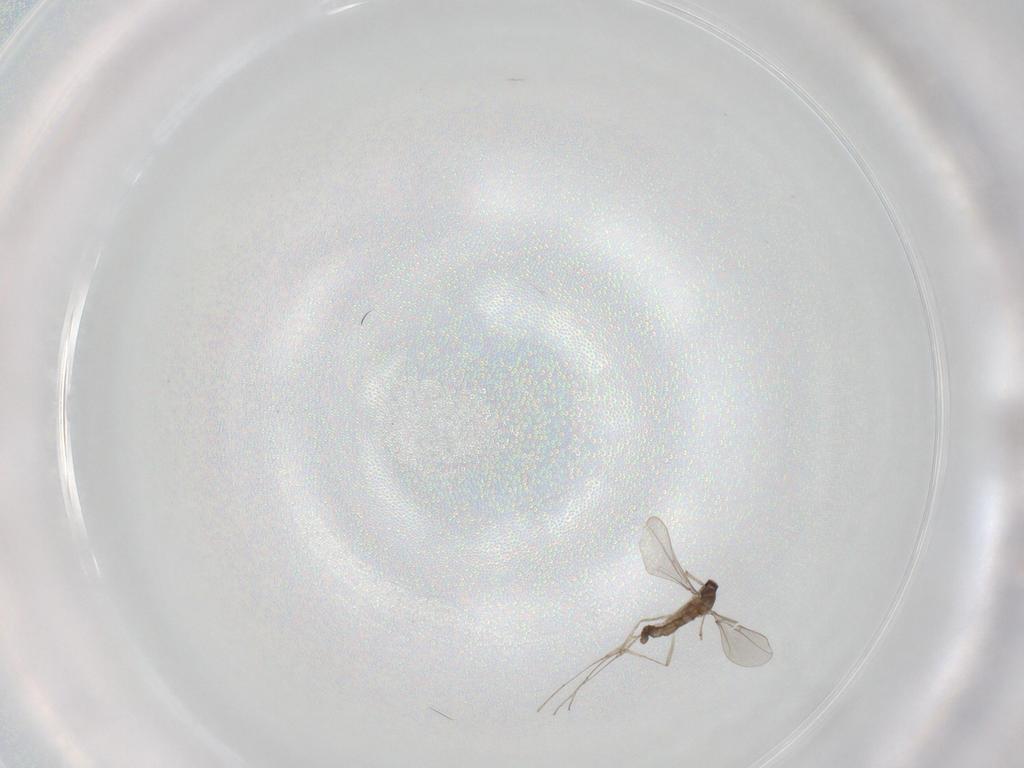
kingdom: Animalia
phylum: Arthropoda
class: Insecta
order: Diptera
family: Cecidomyiidae
